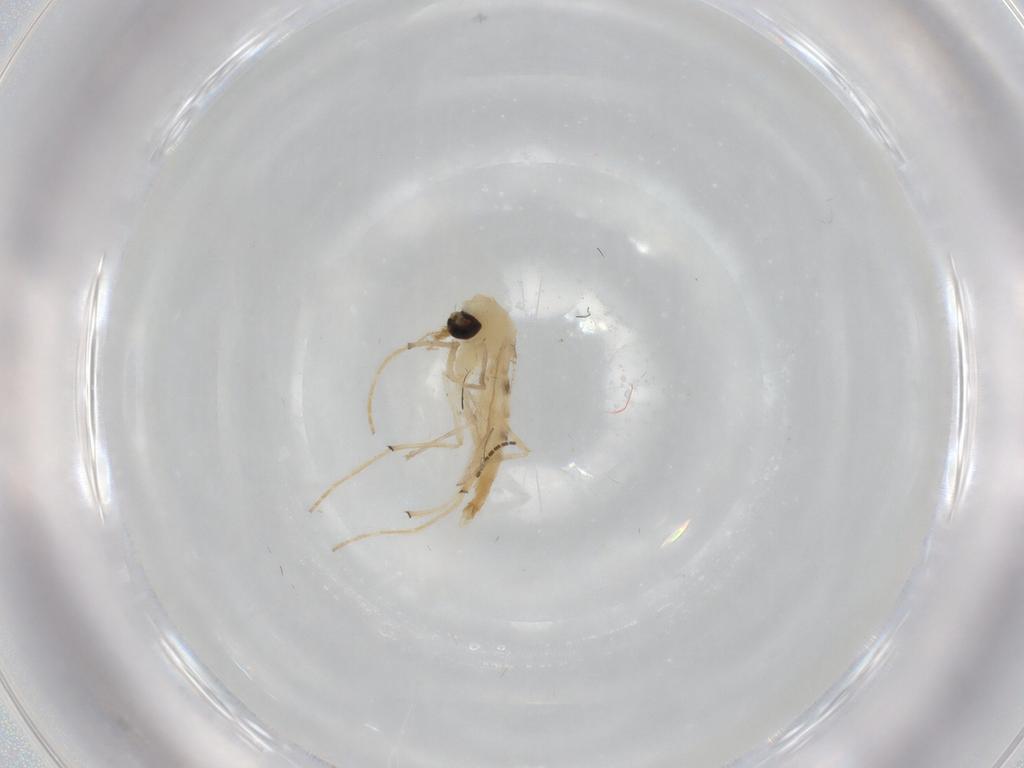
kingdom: Animalia
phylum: Arthropoda
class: Insecta
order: Diptera
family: Chironomidae
